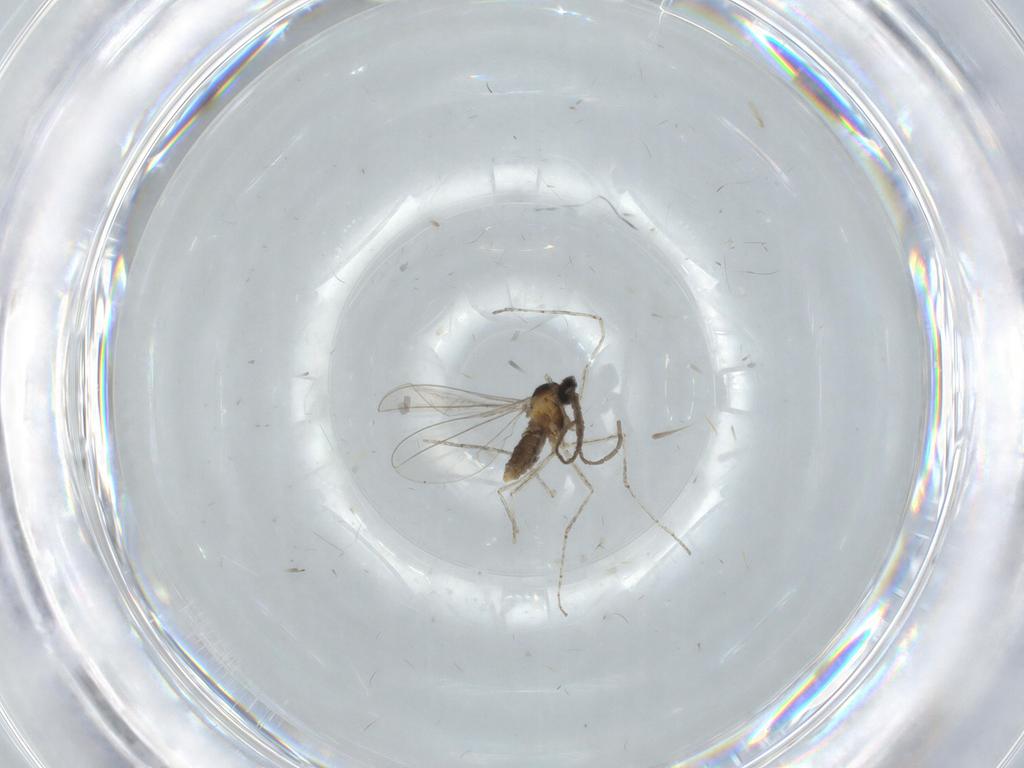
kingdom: Animalia
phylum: Arthropoda
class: Insecta
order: Diptera
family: Cecidomyiidae
